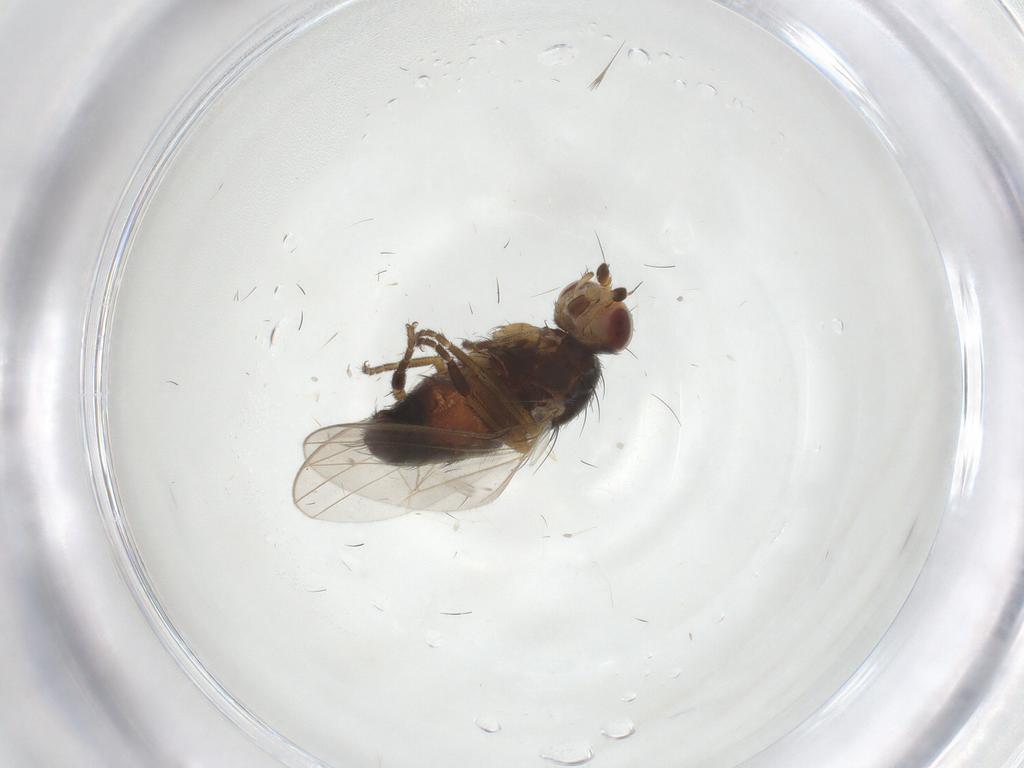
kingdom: Animalia
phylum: Arthropoda
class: Insecta
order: Diptera
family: Heleomyzidae
